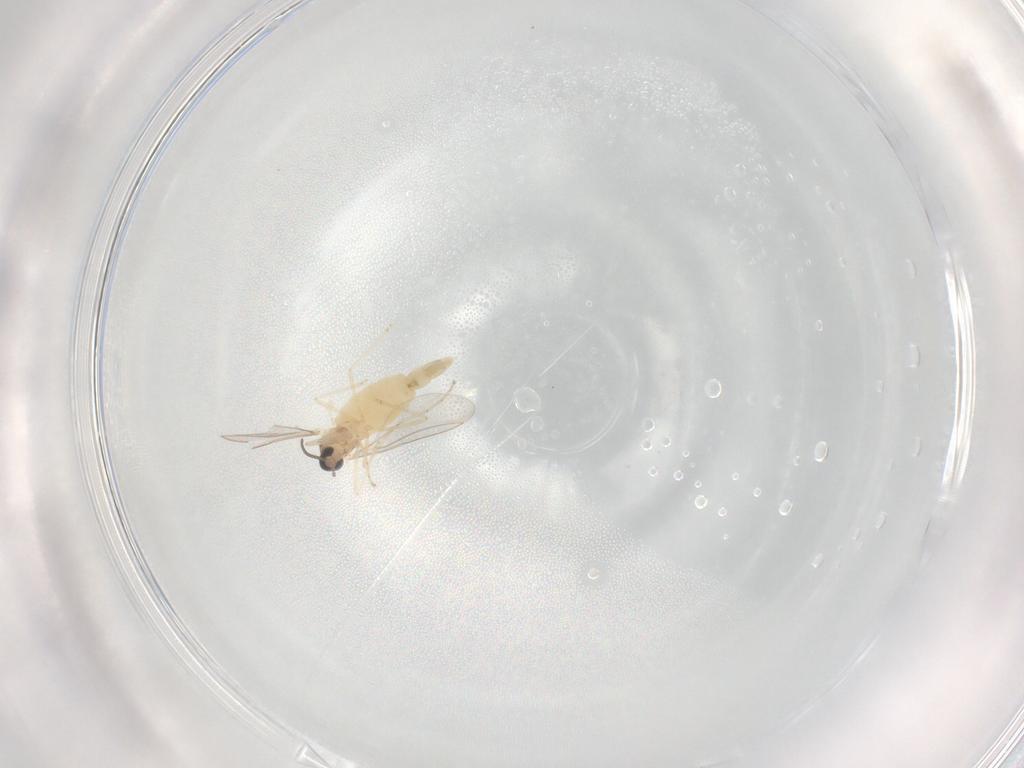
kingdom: Animalia
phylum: Arthropoda
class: Insecta
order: Diptera
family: Cecidomyiidae
